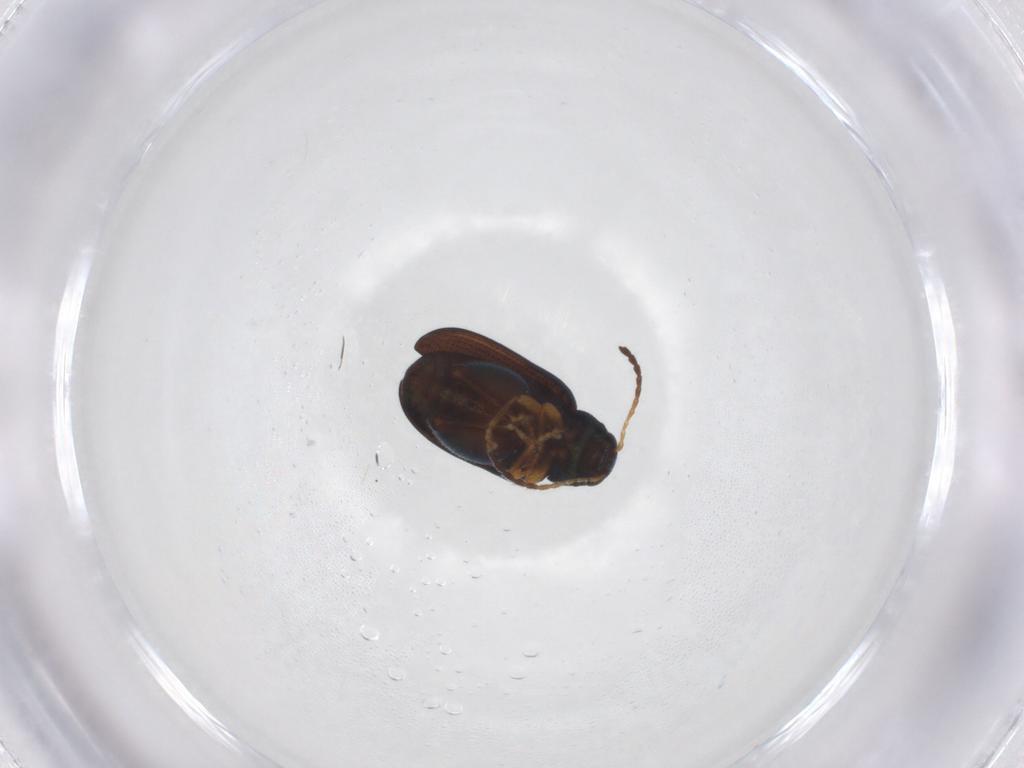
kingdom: Animalia
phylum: Arthropoda
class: Insecta
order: Coleoptera
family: Chrysomelidae
